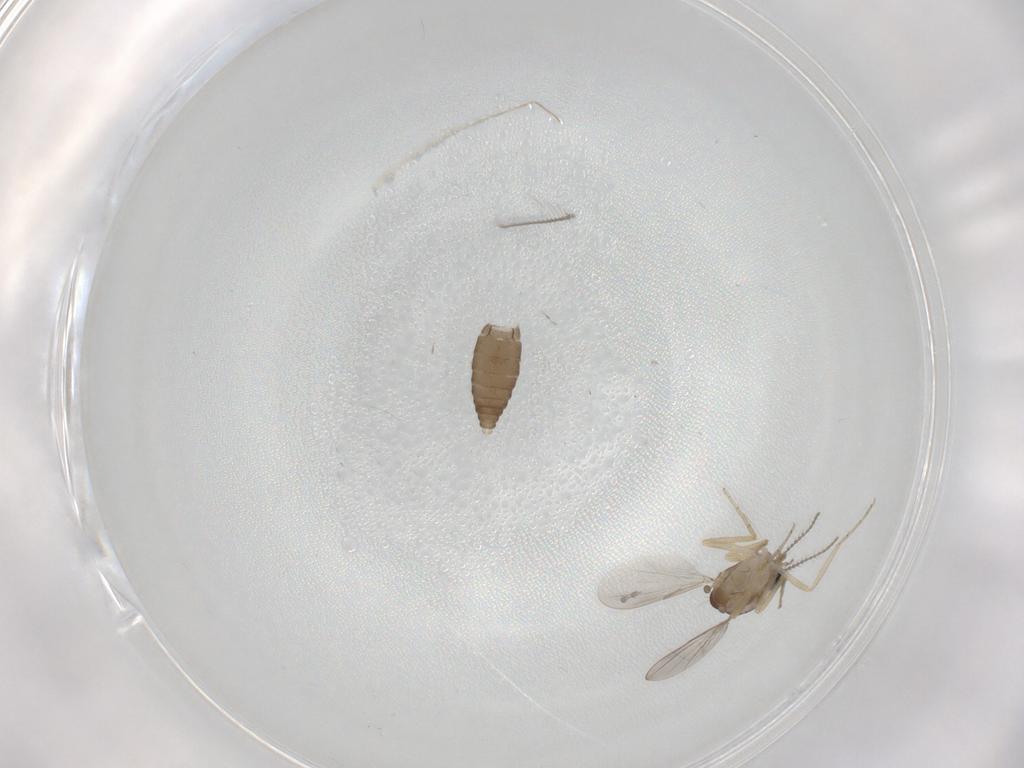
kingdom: Animalia
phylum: Arthropoda
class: Insecta
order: Diptera
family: Ceratopogonidae
